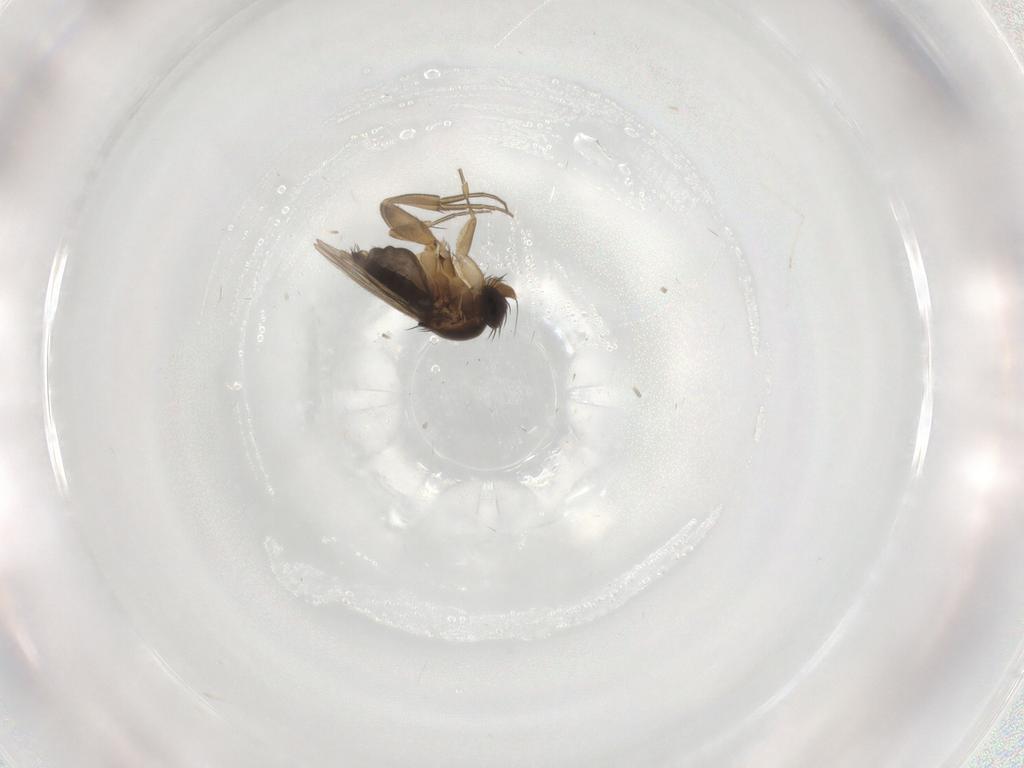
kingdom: Animalia
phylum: Arthropoda
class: Insecta
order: Diptera
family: Phoridae
